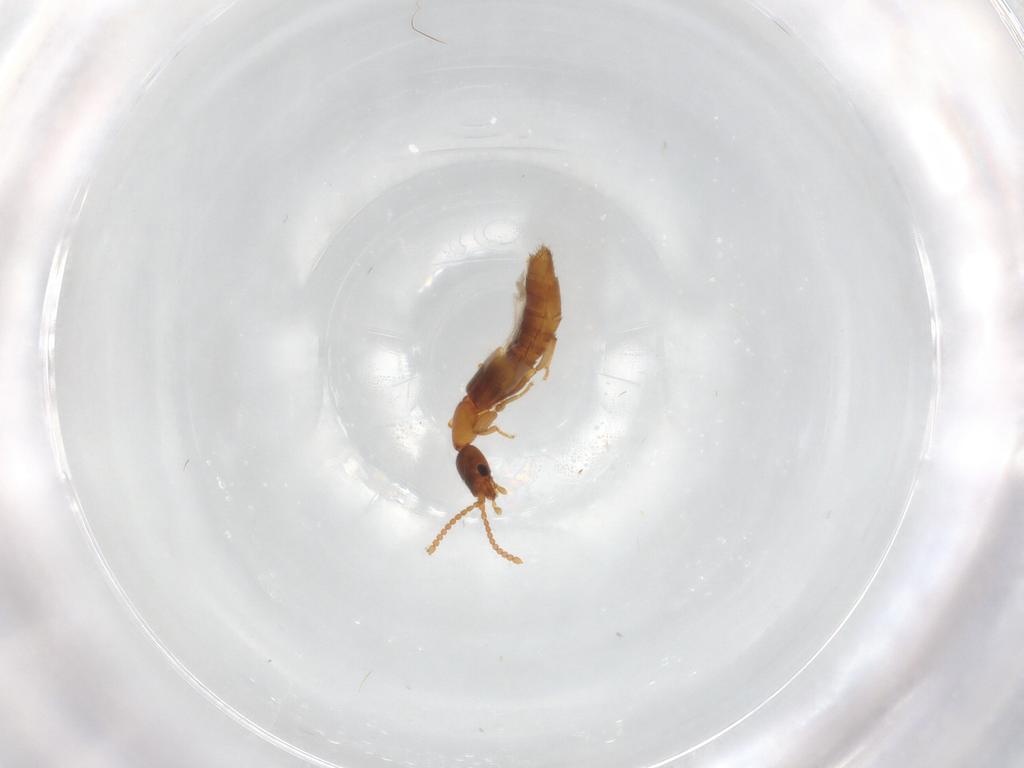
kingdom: Animalia
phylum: Arthropoda
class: Insecta
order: Coleoptera
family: Staphylinidae
